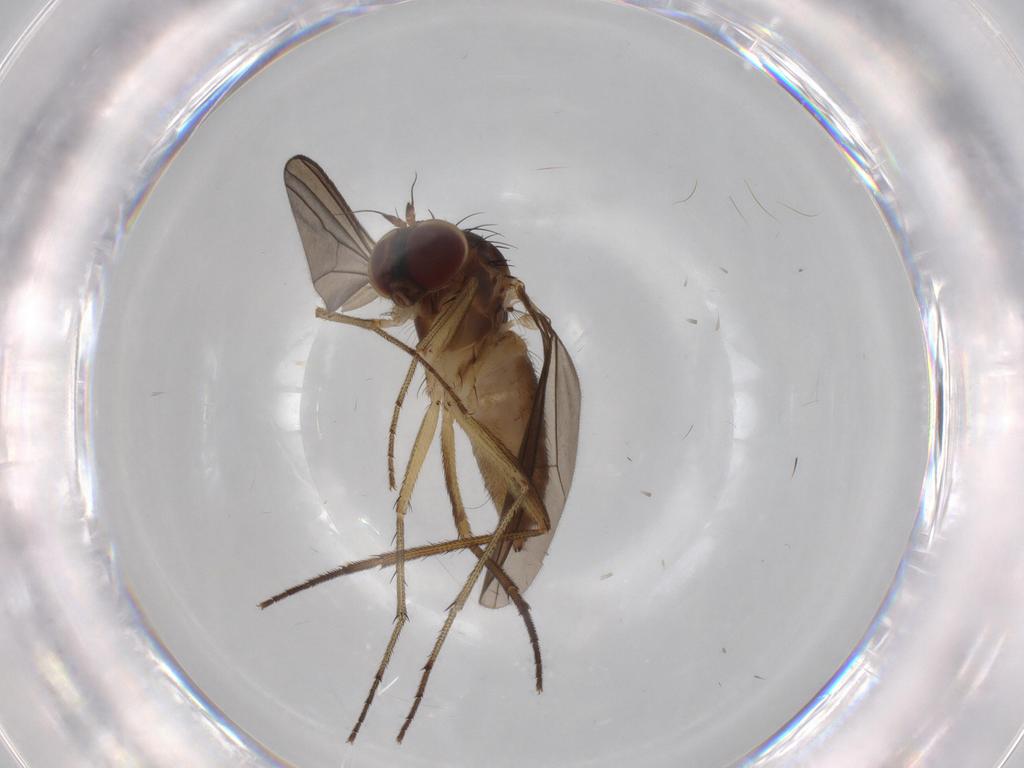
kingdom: Animalia
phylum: Arthropoda
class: Insecta
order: Diptera
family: Dolichopodidae
